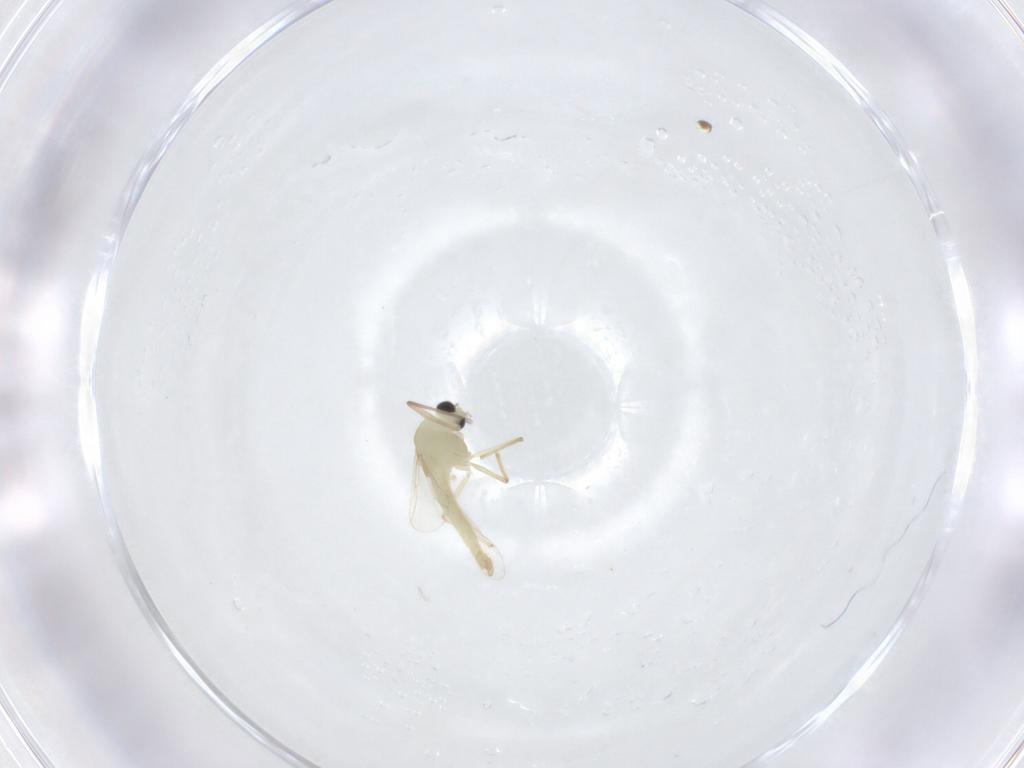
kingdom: Animalia
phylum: Arthropoda
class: Insecta
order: Diptera
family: Chironomidae
